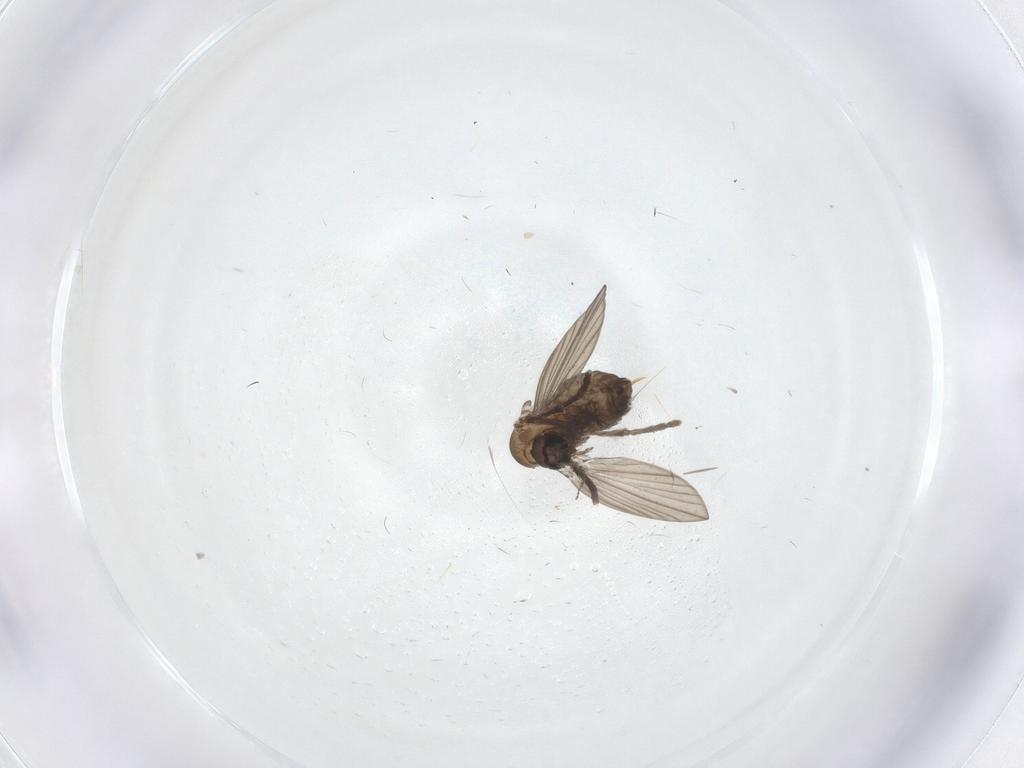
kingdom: Animalia
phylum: Arthropoda
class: Insecta
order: Diptera
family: Psychodidae
